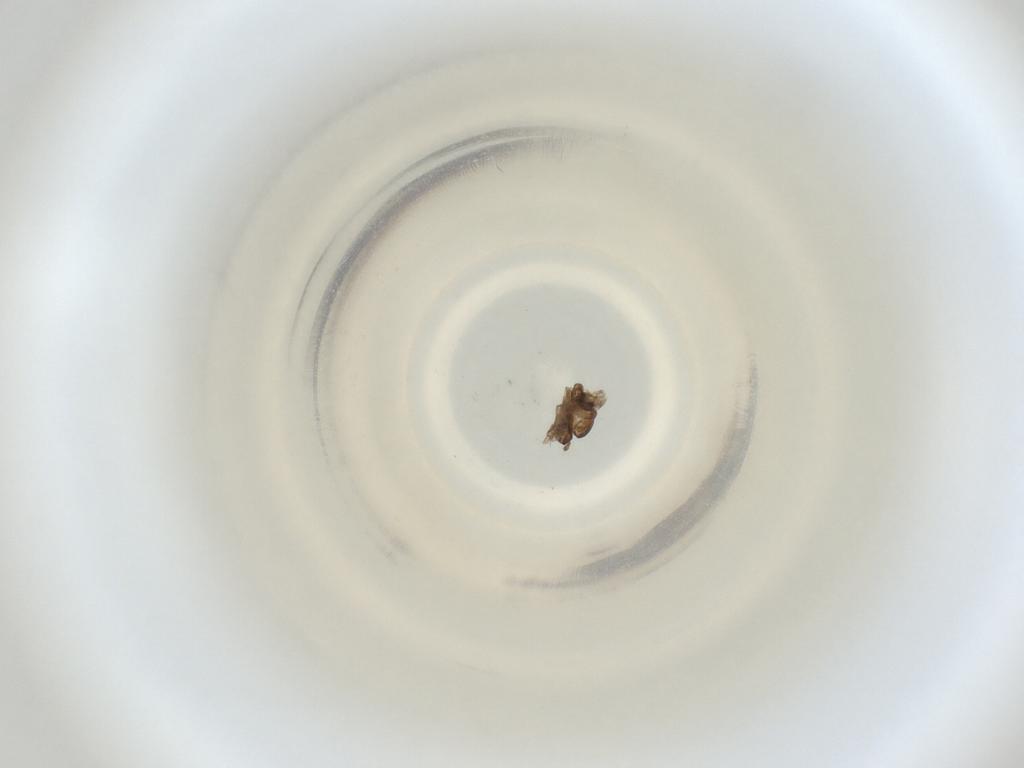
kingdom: Animalia
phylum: Arthropoda
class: Insecta
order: Diptera
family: Cecidomyiidae
